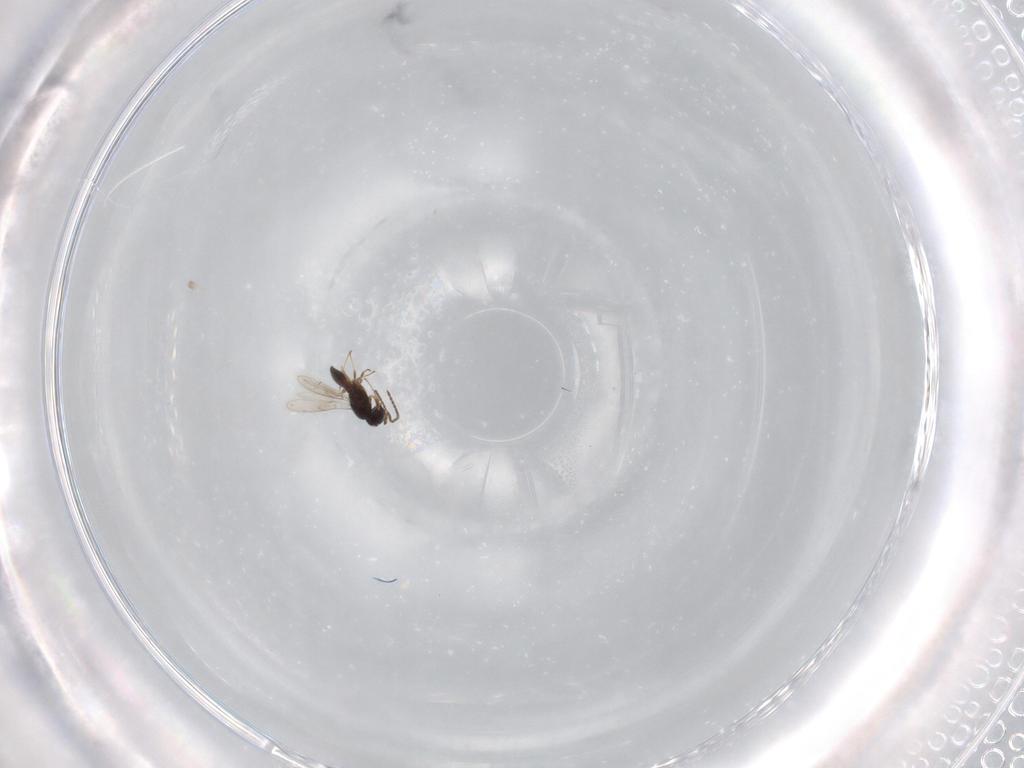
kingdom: Animalia
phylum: Arthropoda
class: Insecta
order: Hymenoptera
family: Scelionidae
